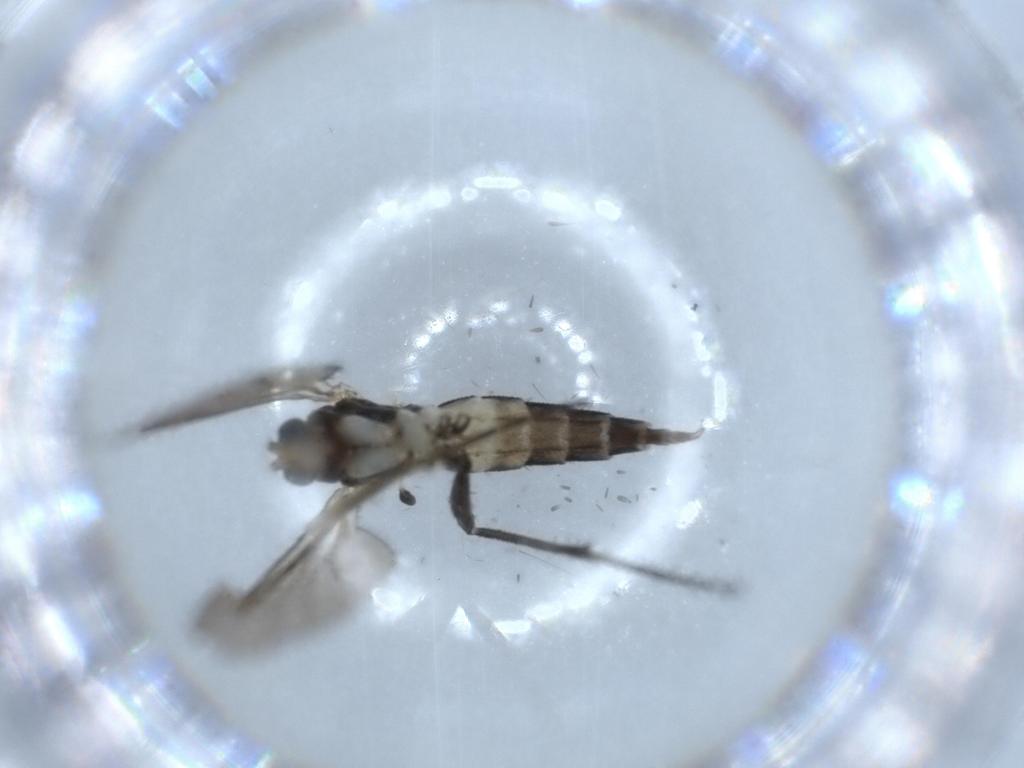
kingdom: Animalia
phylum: Arthropoda
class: Insecta
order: Diptera
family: Sciaridae
